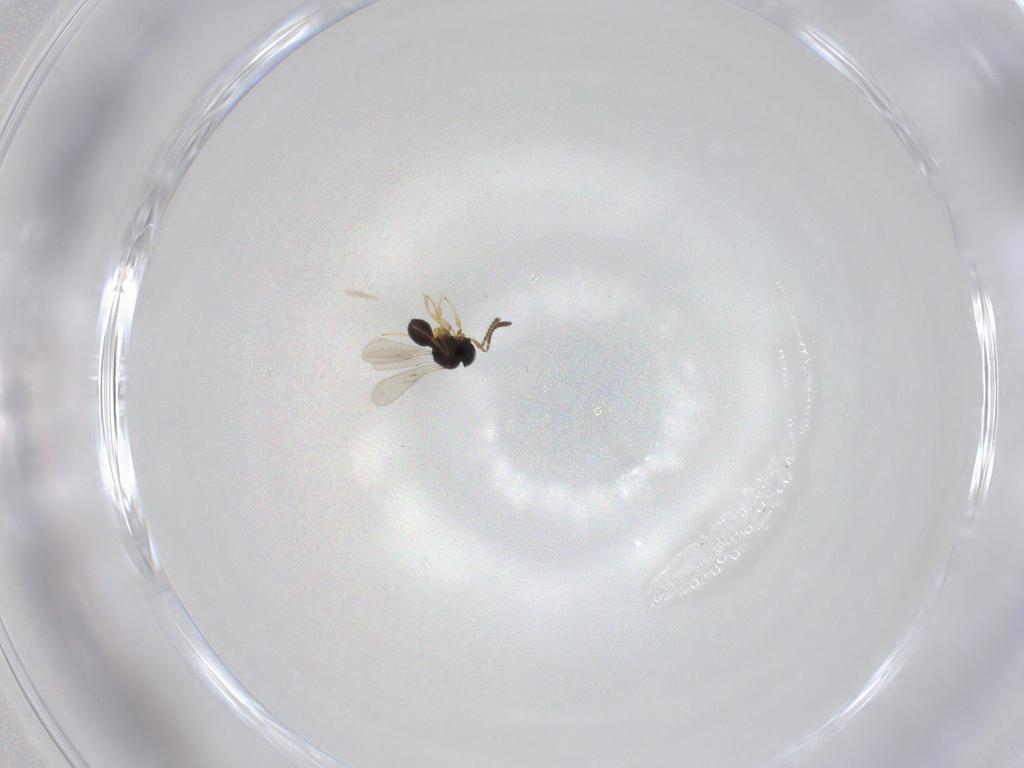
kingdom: Animalia
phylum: Arthropoda
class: Insecta
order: Hymenoptera
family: Scelionidae
